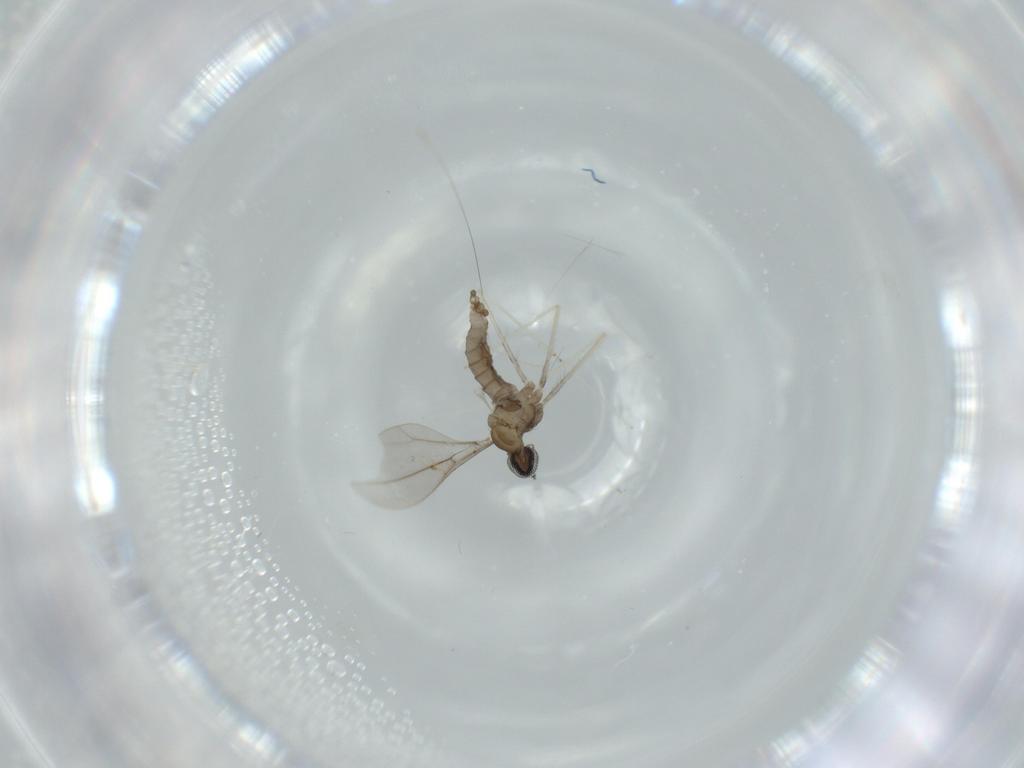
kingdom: Animalia
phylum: Arthropoda
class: Insecta
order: Diptera
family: Cecidomyiidae
